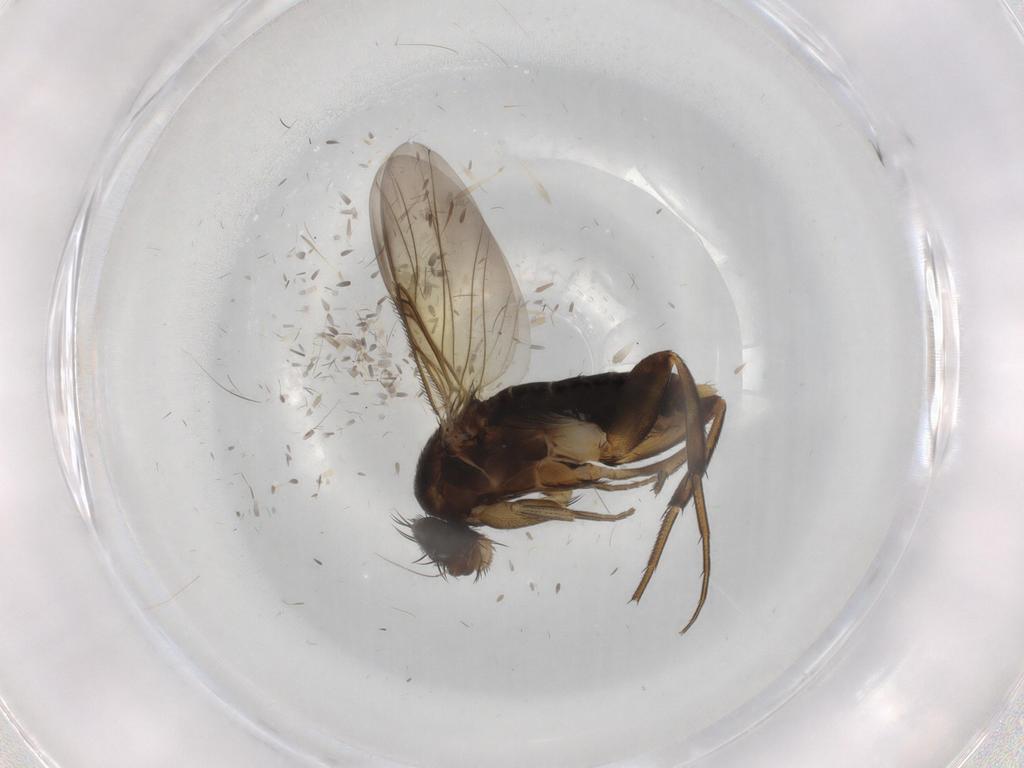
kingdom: Animalia
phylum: Arthropoda
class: Insecta
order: Diptera
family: Phoridae
